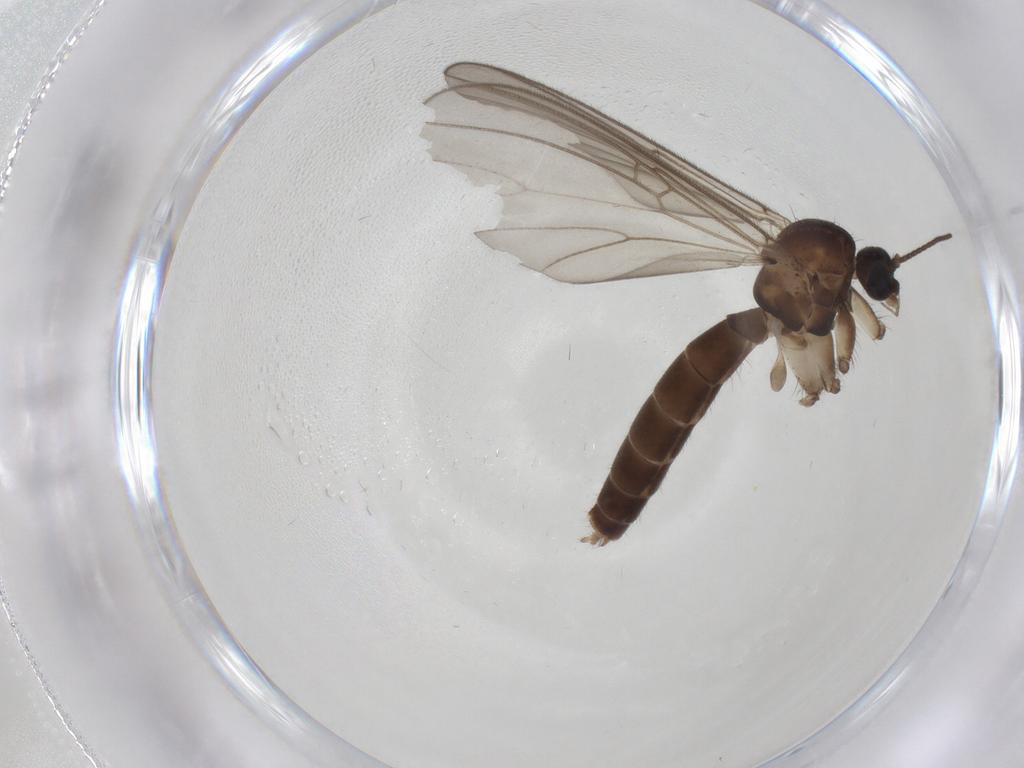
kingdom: Animalia
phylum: Arthropoda
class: Insecta
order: Diptera
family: Mycetophilidae
